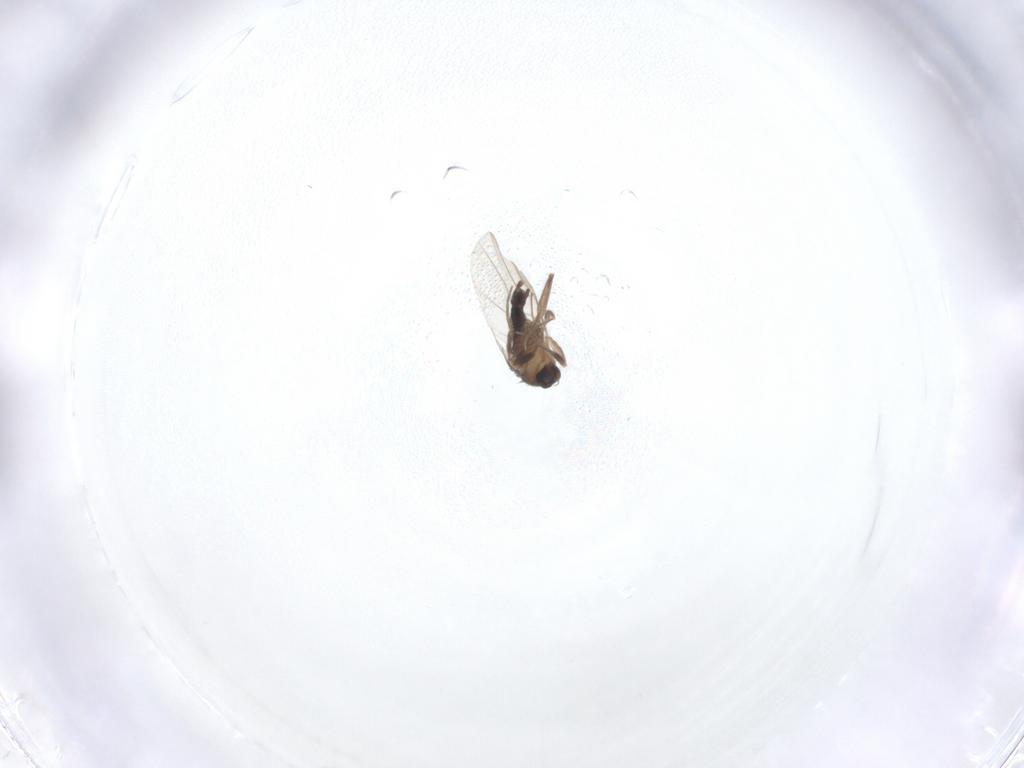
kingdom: Animalia
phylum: Arthropoda
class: Insecta
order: Diptera
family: Phoridae
